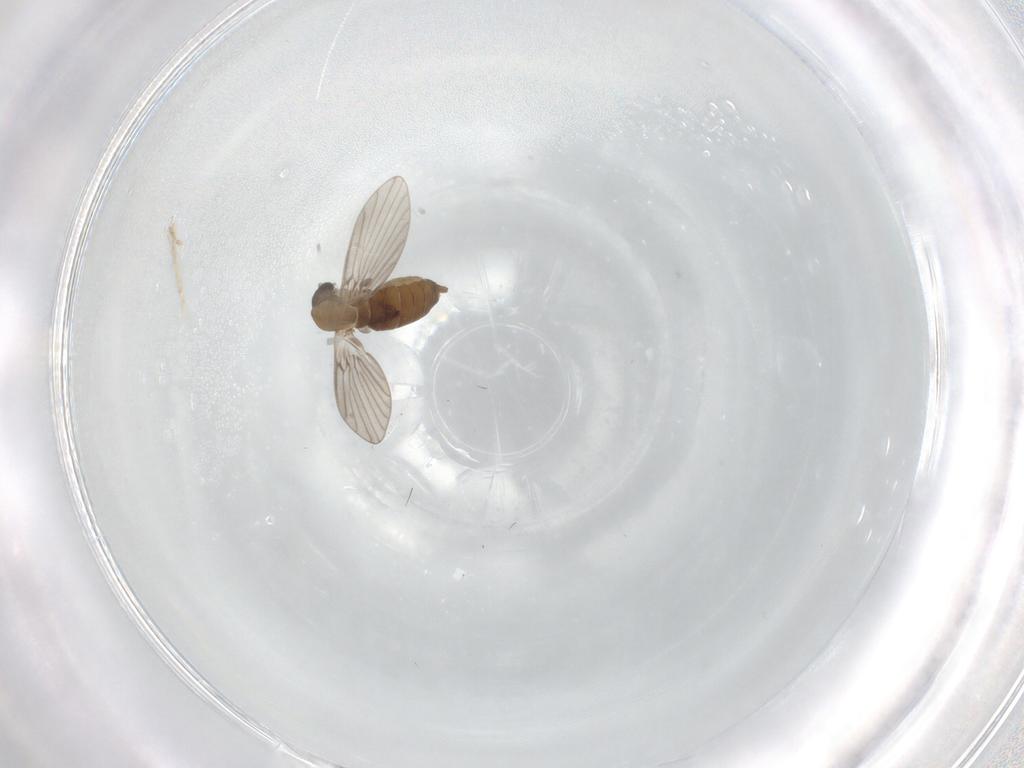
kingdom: Animalia
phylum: Arthropoda
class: Insecta
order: Diptera
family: Psychodidae
